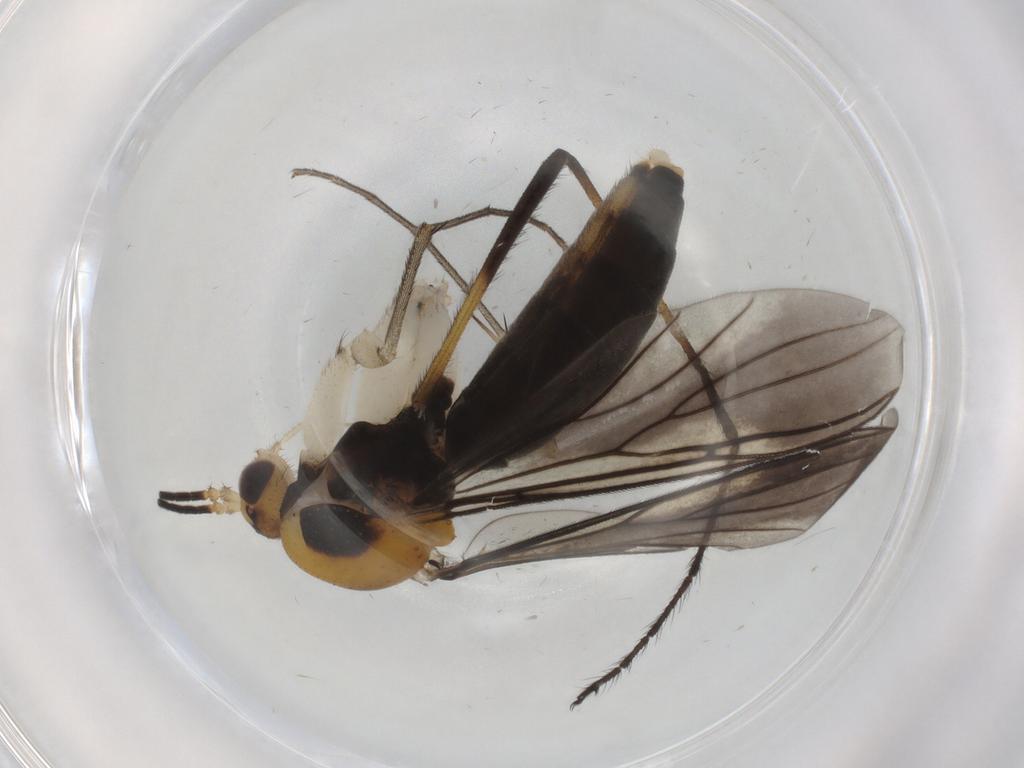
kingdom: Animalia
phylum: Arthropoda
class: Insecta
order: Diptera
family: Mycetophilidae
